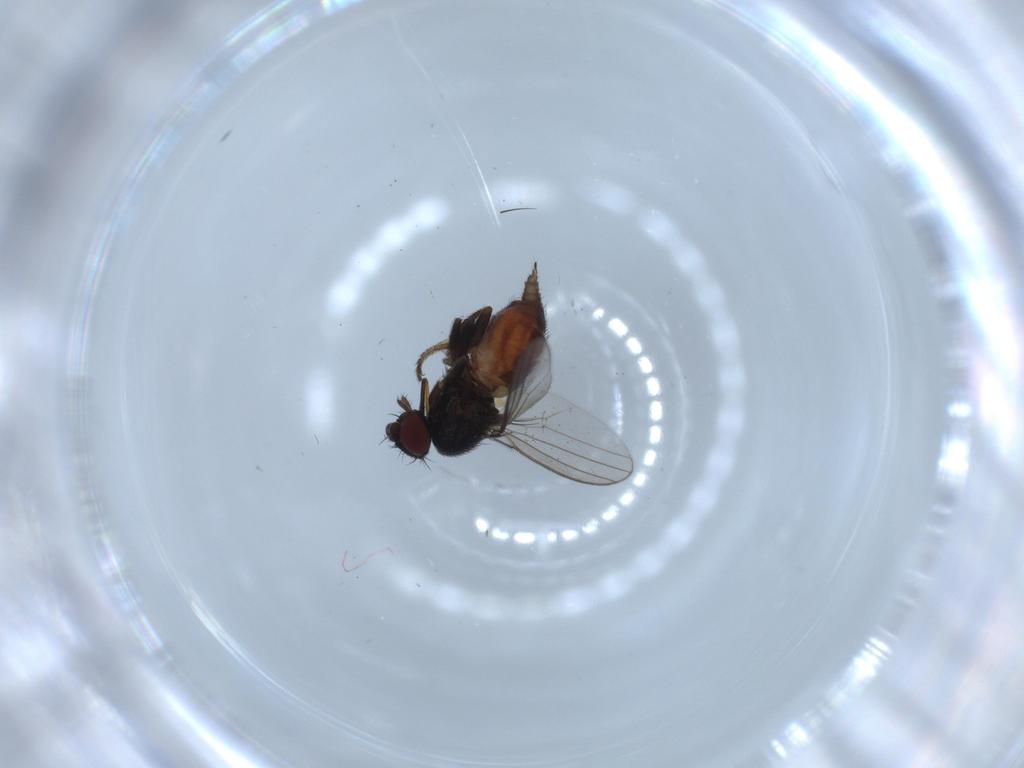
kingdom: Animalia
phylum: Arthropoda
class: Insecta
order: Diptera
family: Milichiidae
